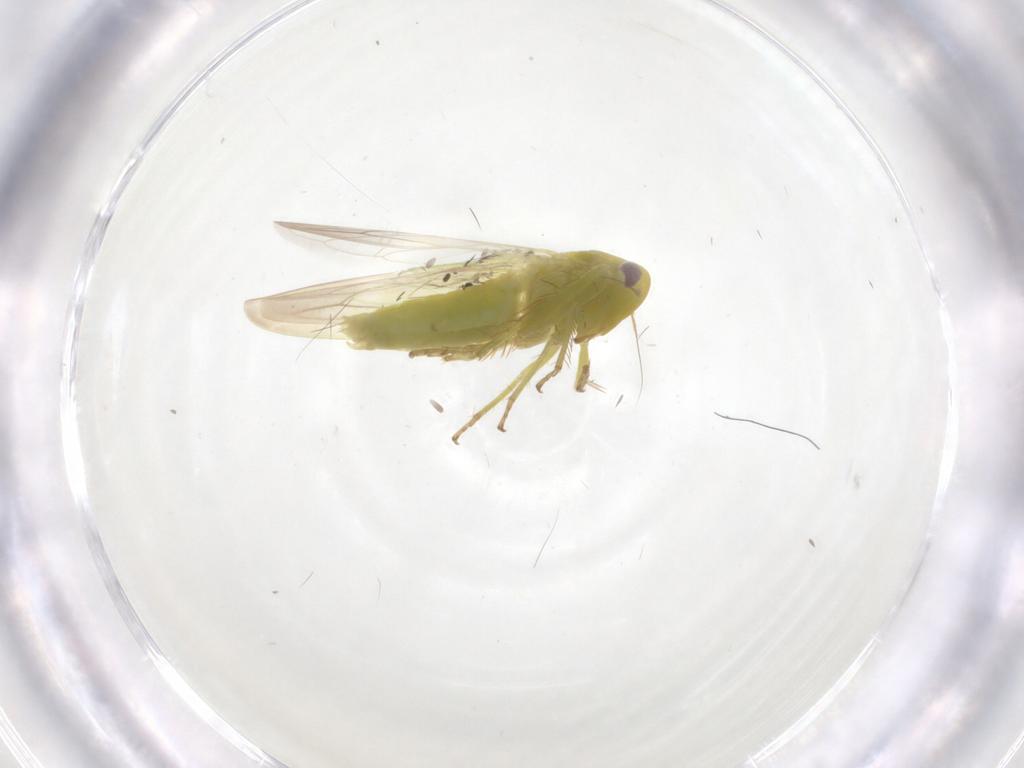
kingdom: Animalia
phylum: Arthropoda
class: Insecta
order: Hemiptera
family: Cicadellidae
